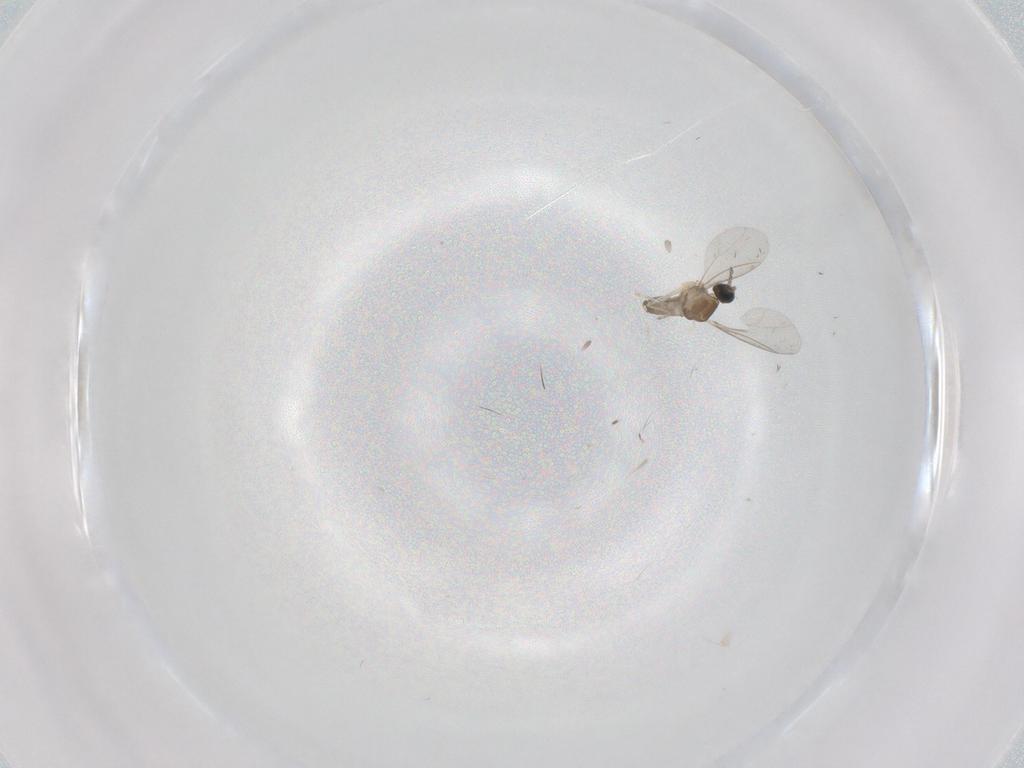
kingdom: Animalia
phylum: Arthropoda
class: Insecta
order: Diptera
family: Cecidomyiidae
